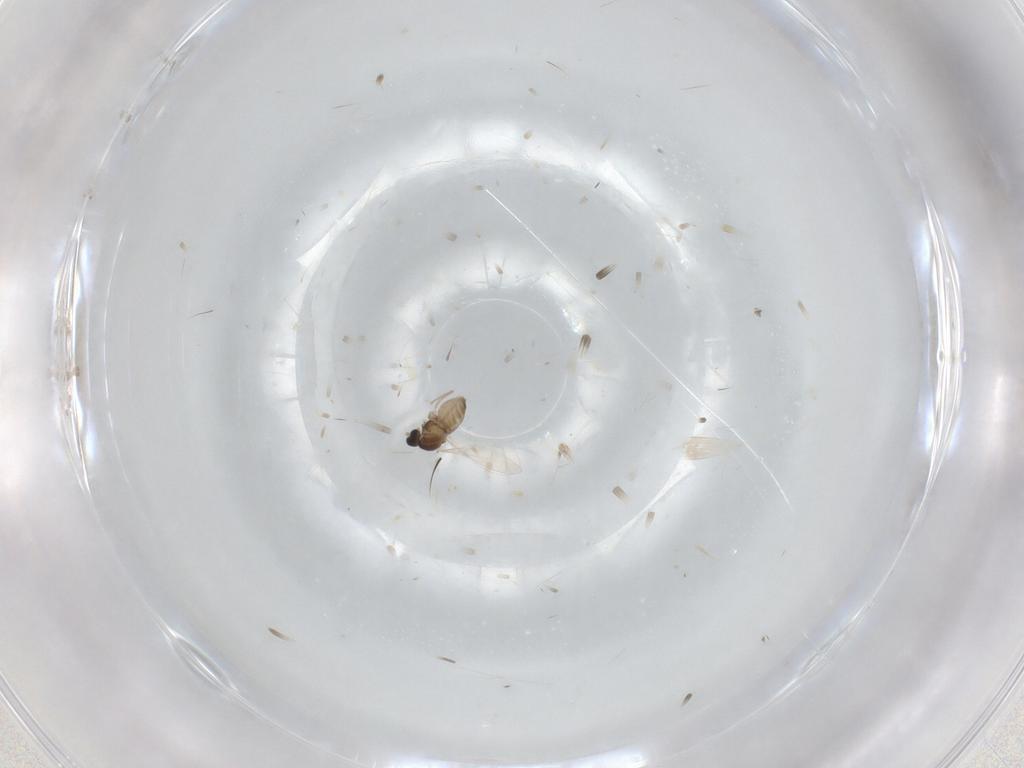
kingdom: Animalia
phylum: Arthropoda
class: Insecta
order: Diptera
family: Cecidomyiidae
